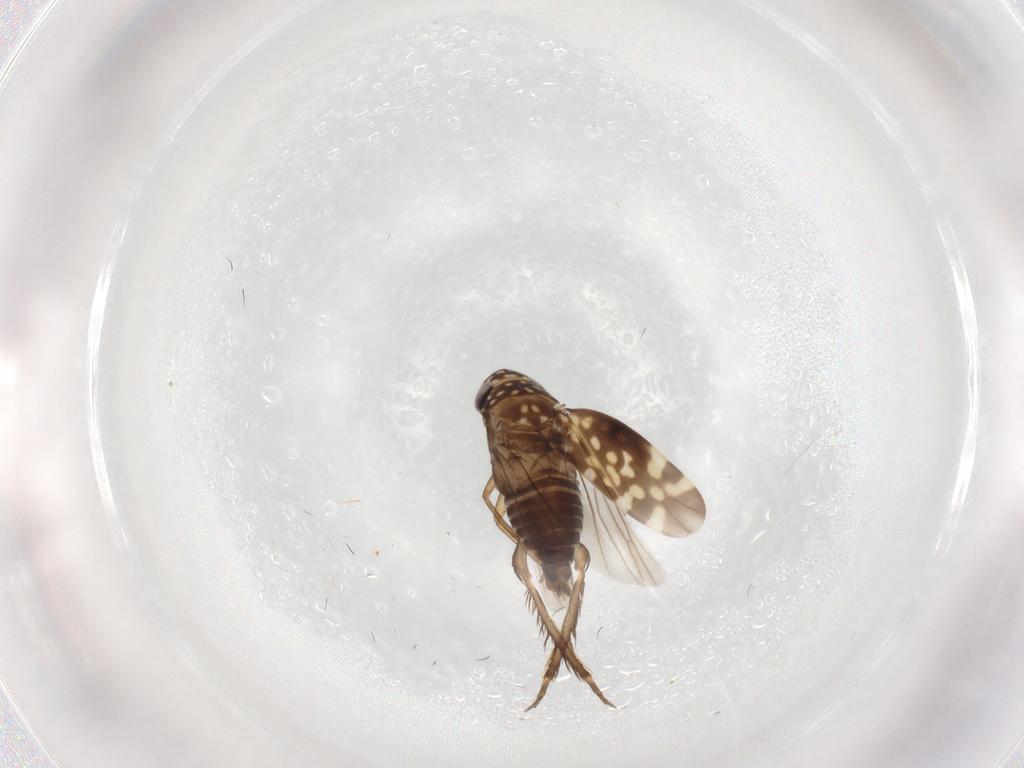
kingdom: Animalia
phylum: Arthropoda
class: Insecta
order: Hemiptera
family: Cicadellidae
